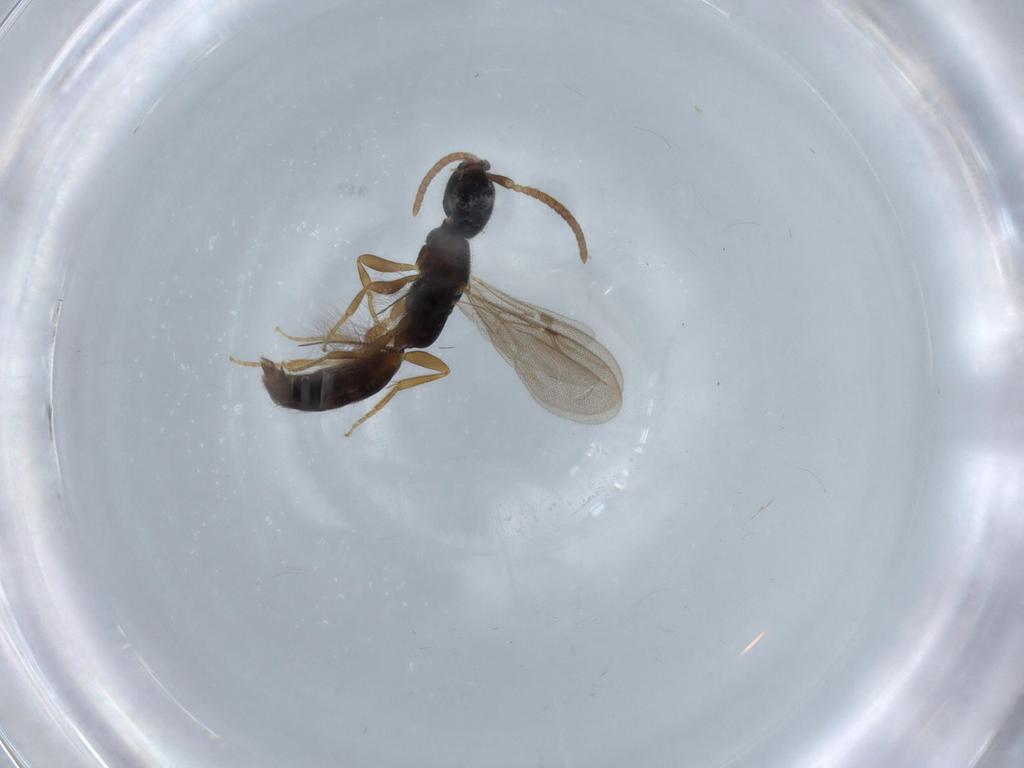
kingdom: Animalia
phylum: Arthropoda
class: Insecta
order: Hymenoptera
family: Bethylidae
